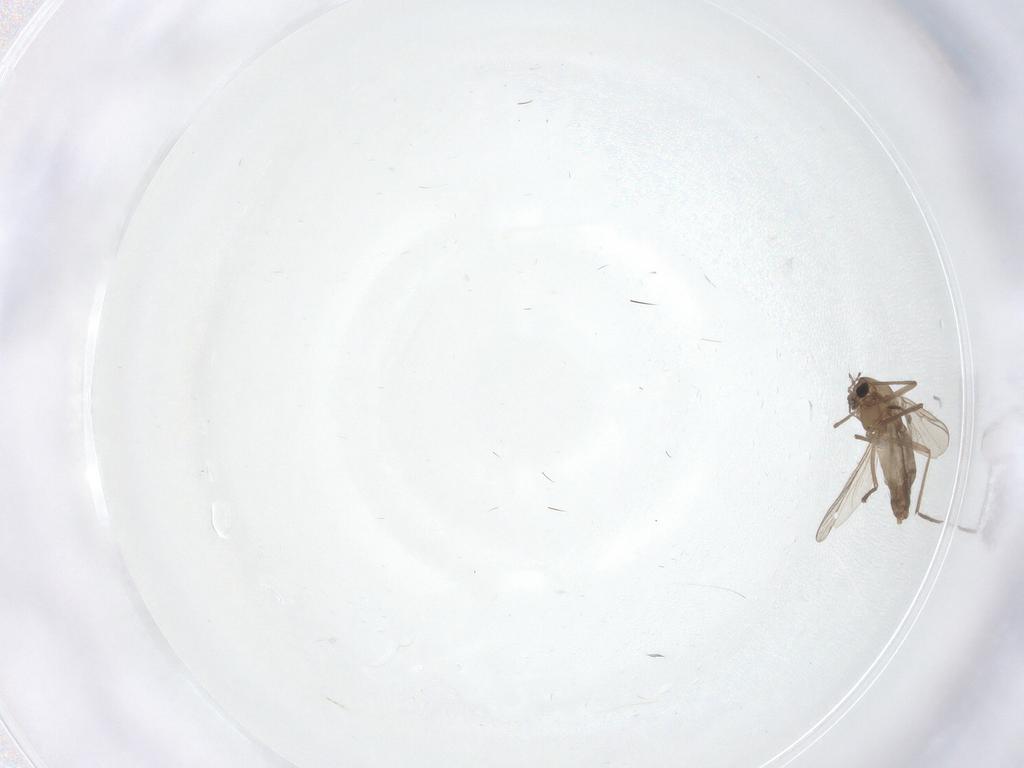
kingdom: Animalia
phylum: Arthropoda
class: Insecta
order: Diptera
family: Chironomidae
